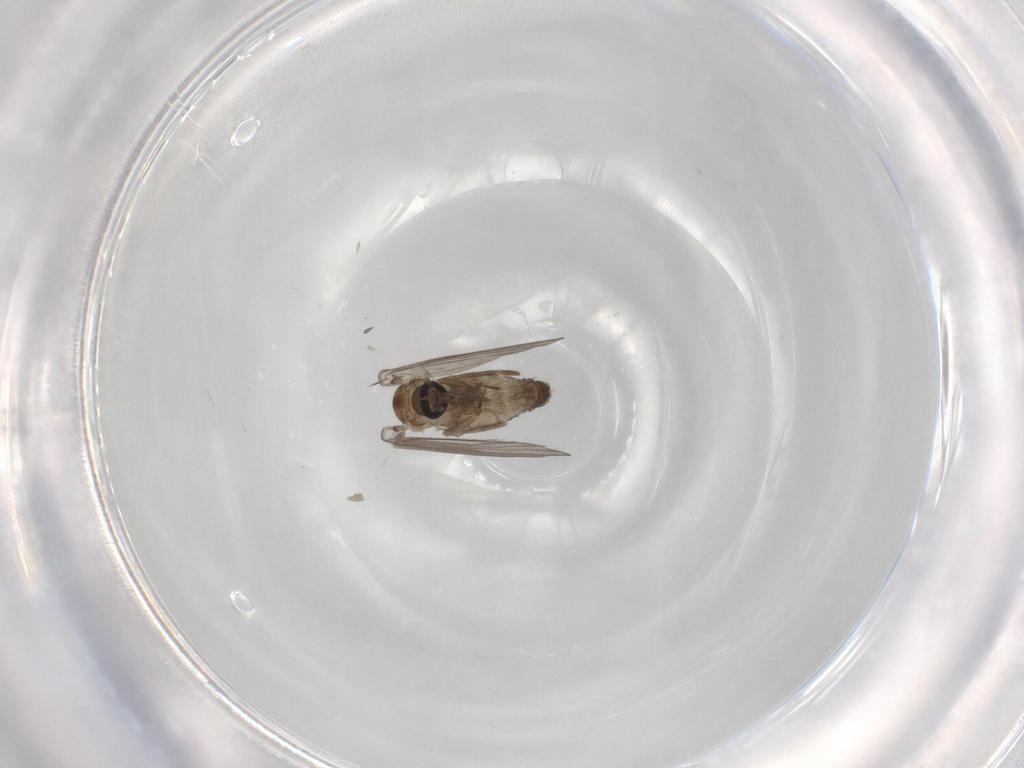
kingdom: Animalia
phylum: Arthropoda
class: Insecta
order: Diptera
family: Psychodidae
